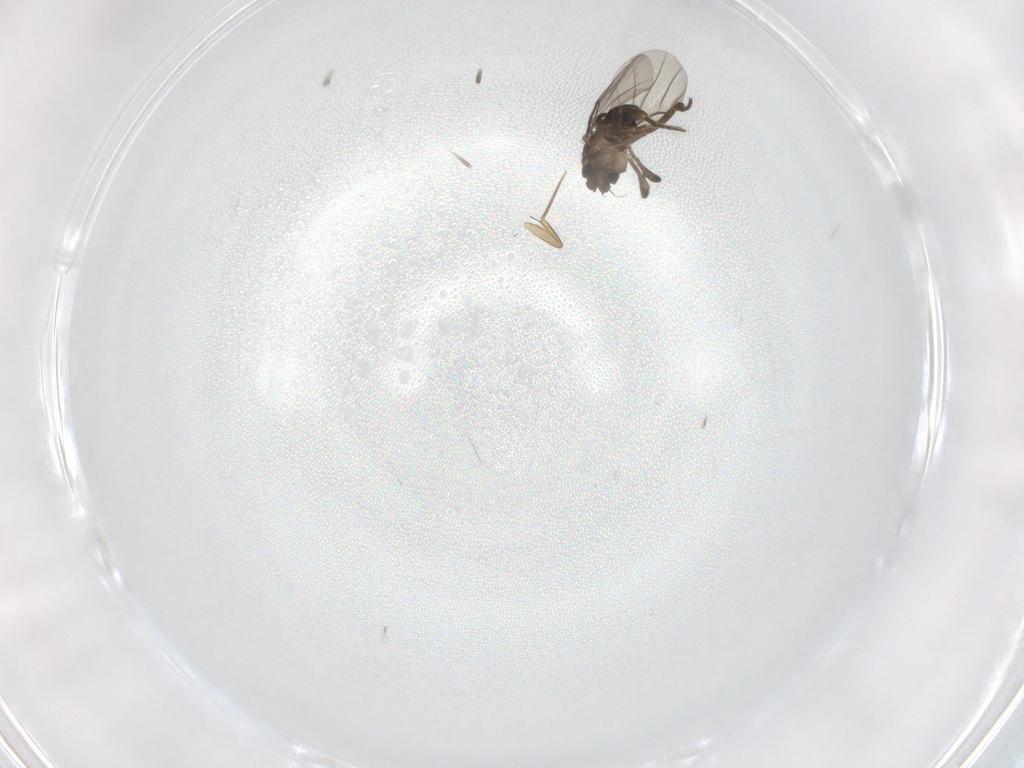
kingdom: Animalia
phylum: Arthropoda
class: Insecta
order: Diptera
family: Phoridae
